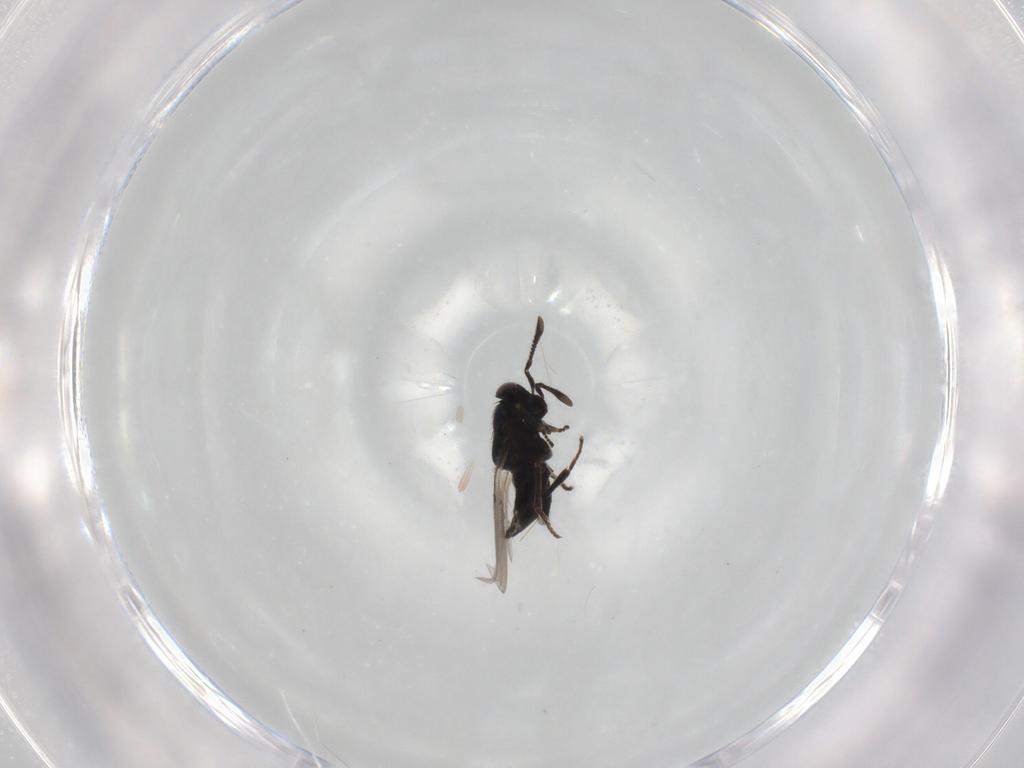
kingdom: Animalia
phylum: Arthropoda
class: Insecta
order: Hymenoptera
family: Encyrtidae
